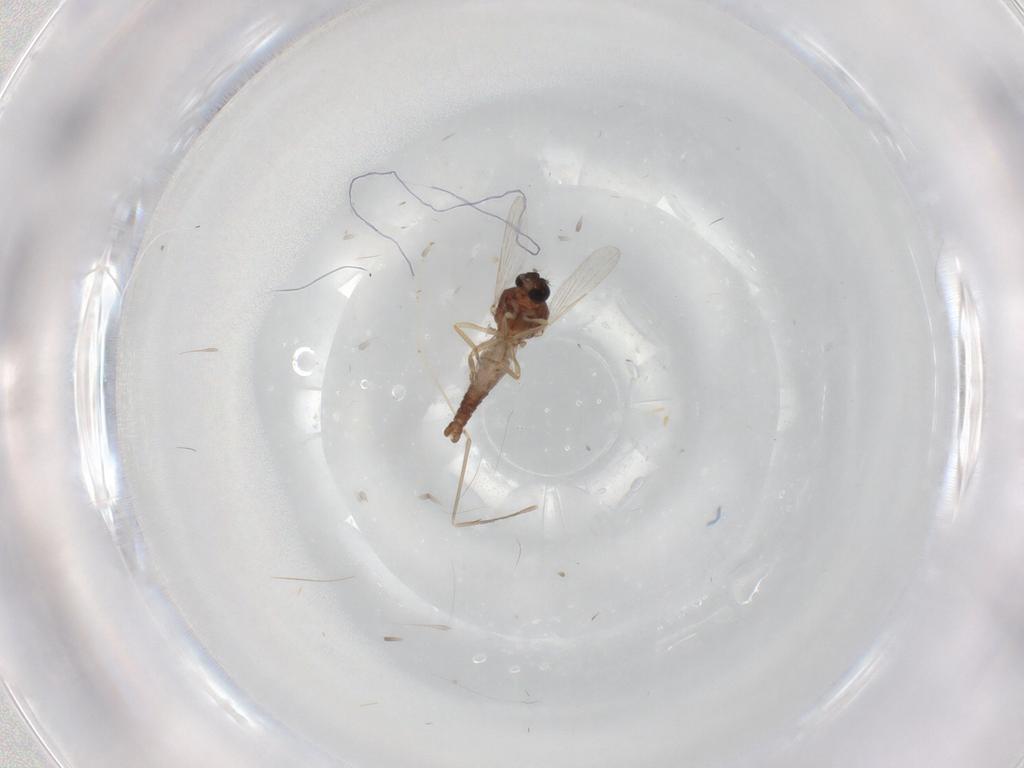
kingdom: Animalia
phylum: Arthropoda
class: Insecta
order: Diptera
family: Ceratopogonidae
